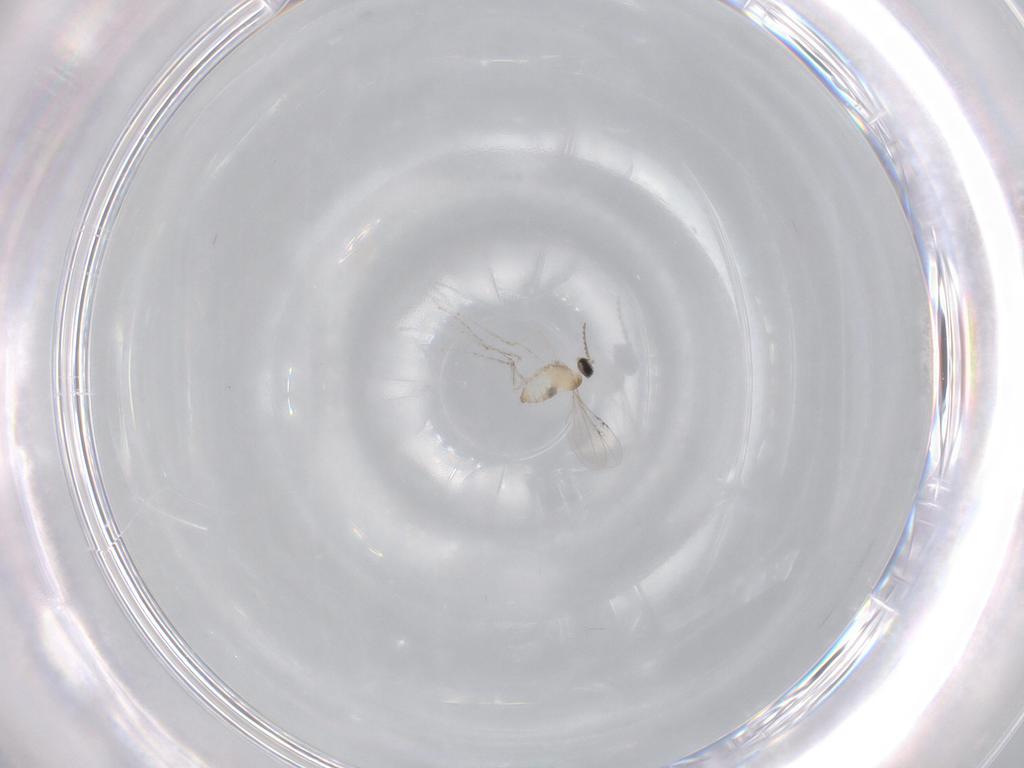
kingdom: Animalia
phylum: Arthropoda
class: Insecta
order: Diptera
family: Cecidomyiidae
